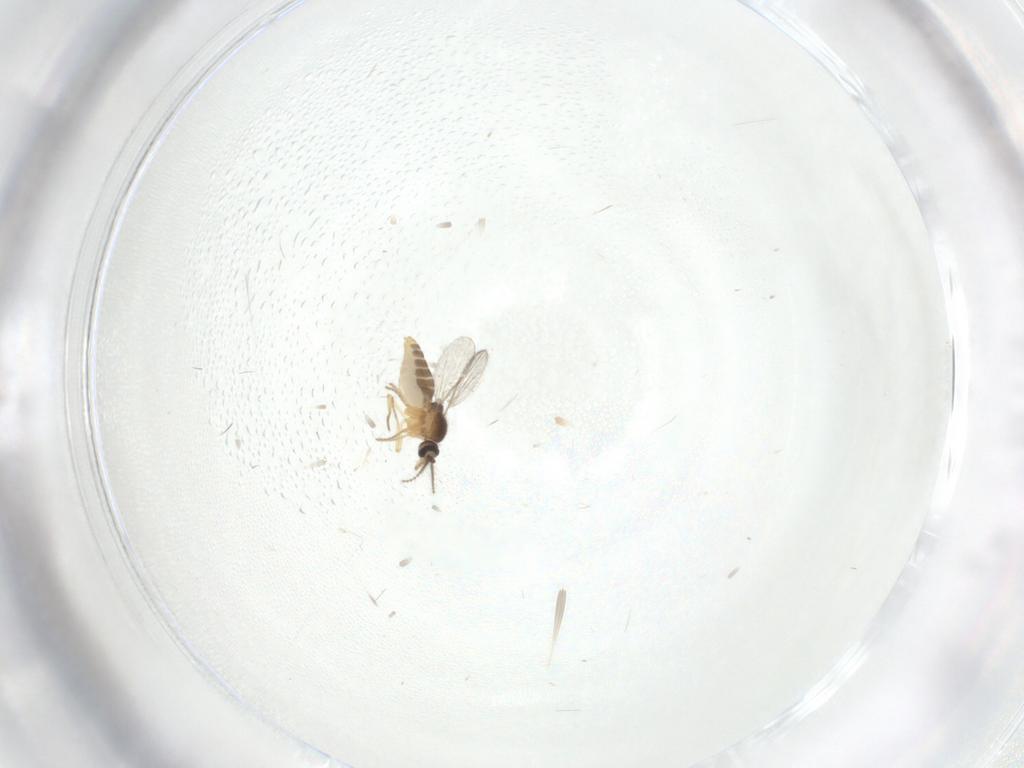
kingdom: Animalia
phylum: Arthropoda
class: Insecta
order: Diptera
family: Ceratopogonidae
